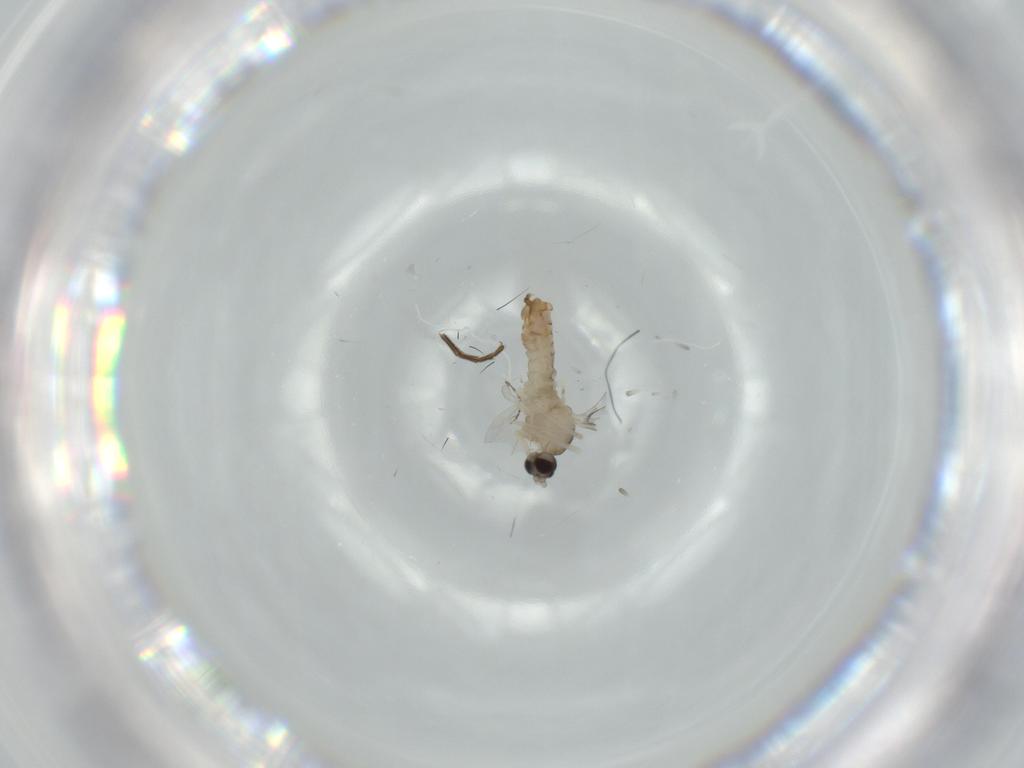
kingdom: Animalia
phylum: Arthropoda
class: Insecta
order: Diptera
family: Cecidomyiidae
